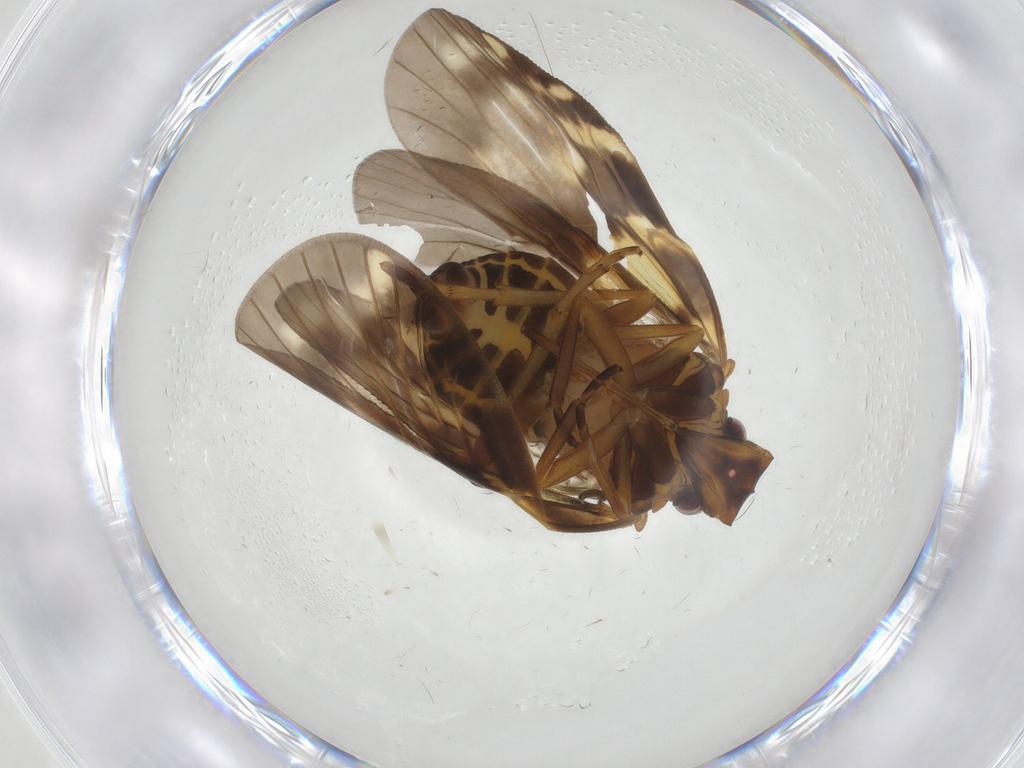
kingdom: Animalia
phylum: Arthropoda
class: Insecta
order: Hemiptera
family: Cixiidae
